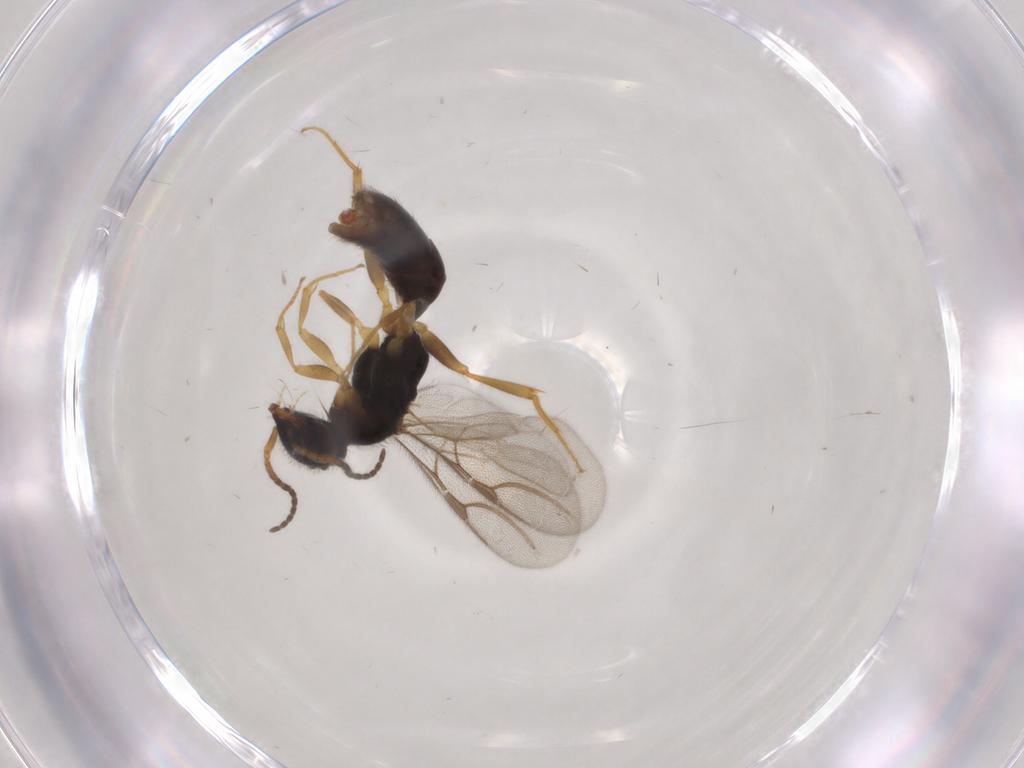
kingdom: Animalia
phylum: Arthropoda
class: Insecta
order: Hymenoptera
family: Bethylidae
